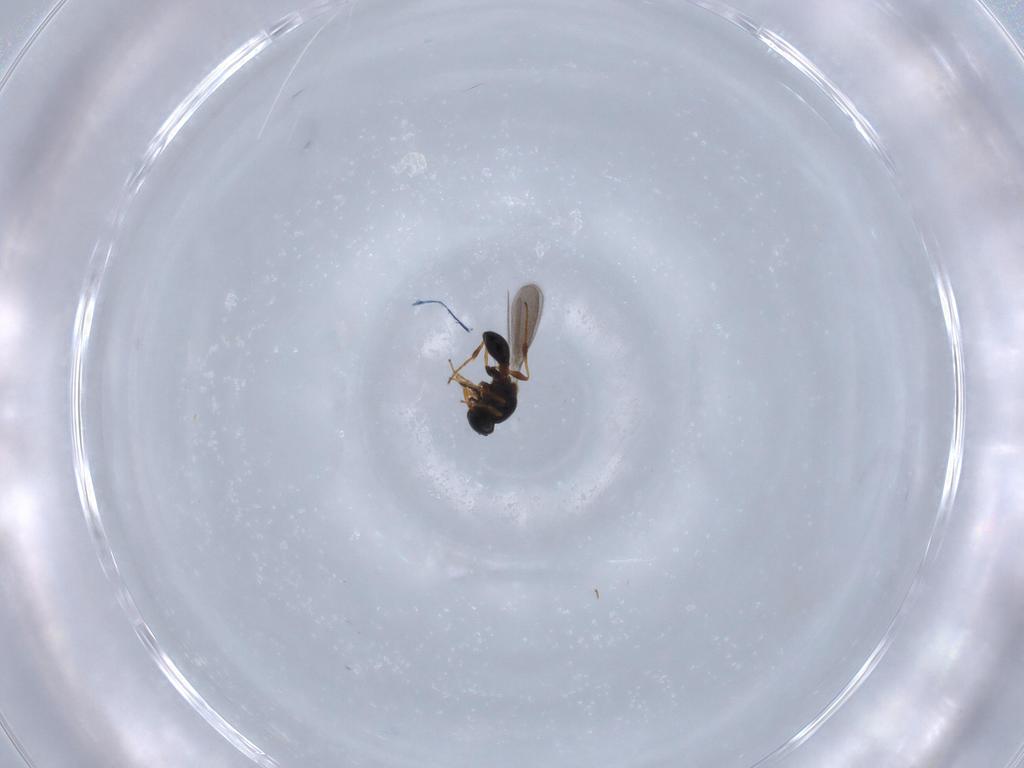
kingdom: Animalia
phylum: Arthropoda
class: Insecta
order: Hymenoptera
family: Platygastridae
